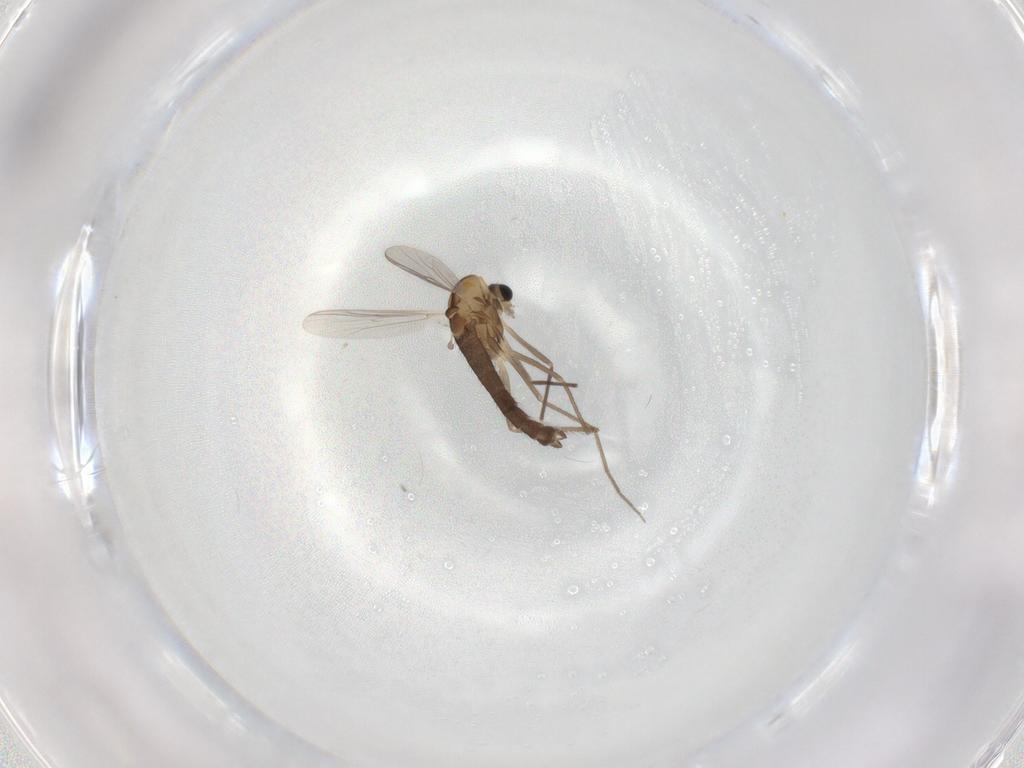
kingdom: Animalia
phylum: Arthropoda
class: Insecta
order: Diptera
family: Chironomidae
